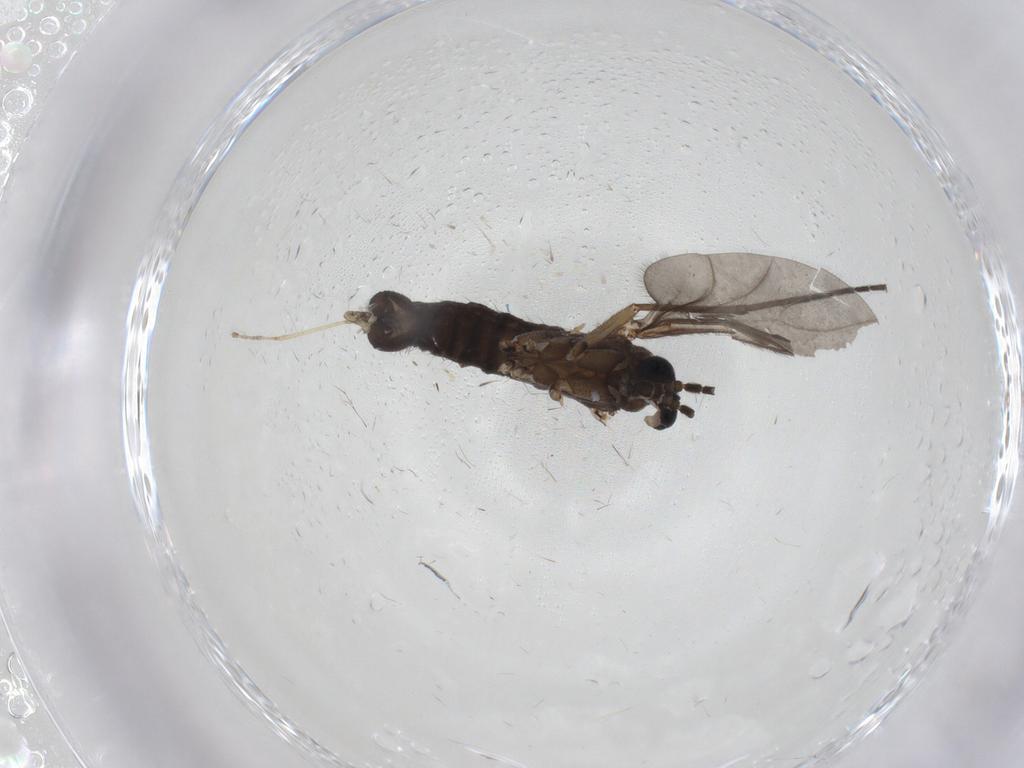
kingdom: Animalia
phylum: Arthropoda
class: Insecta
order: Diptera
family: Sciaridae
